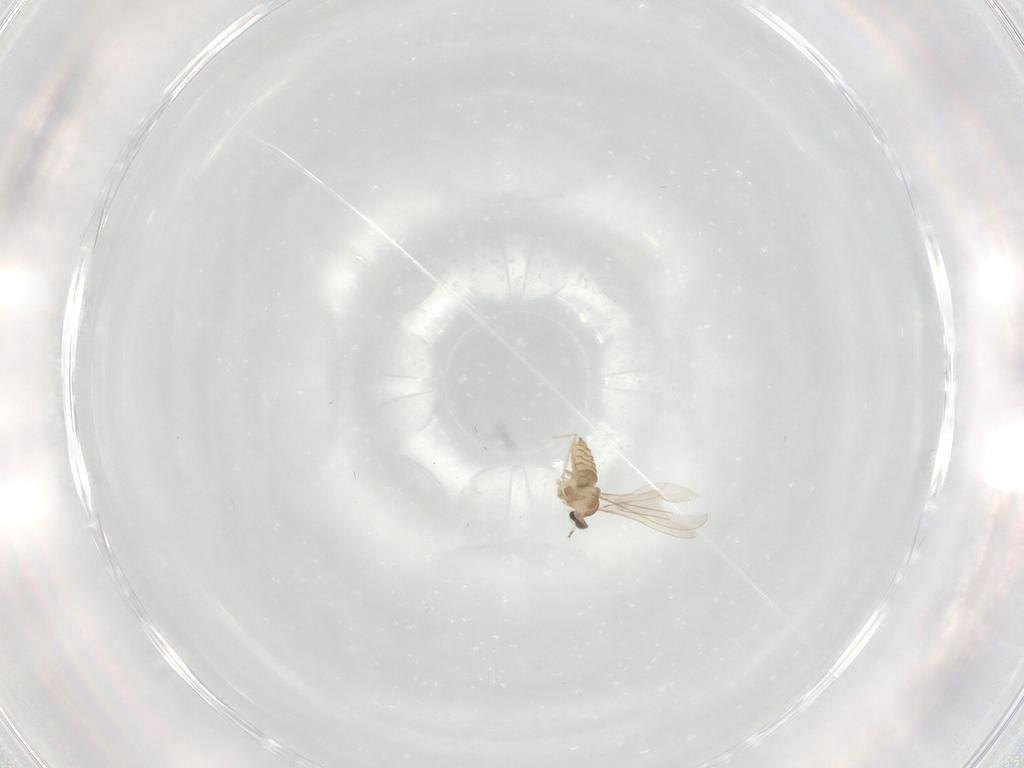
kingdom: Animalia
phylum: Arthropoda
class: Insecta
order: Diptera
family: Cecidomyiidae
